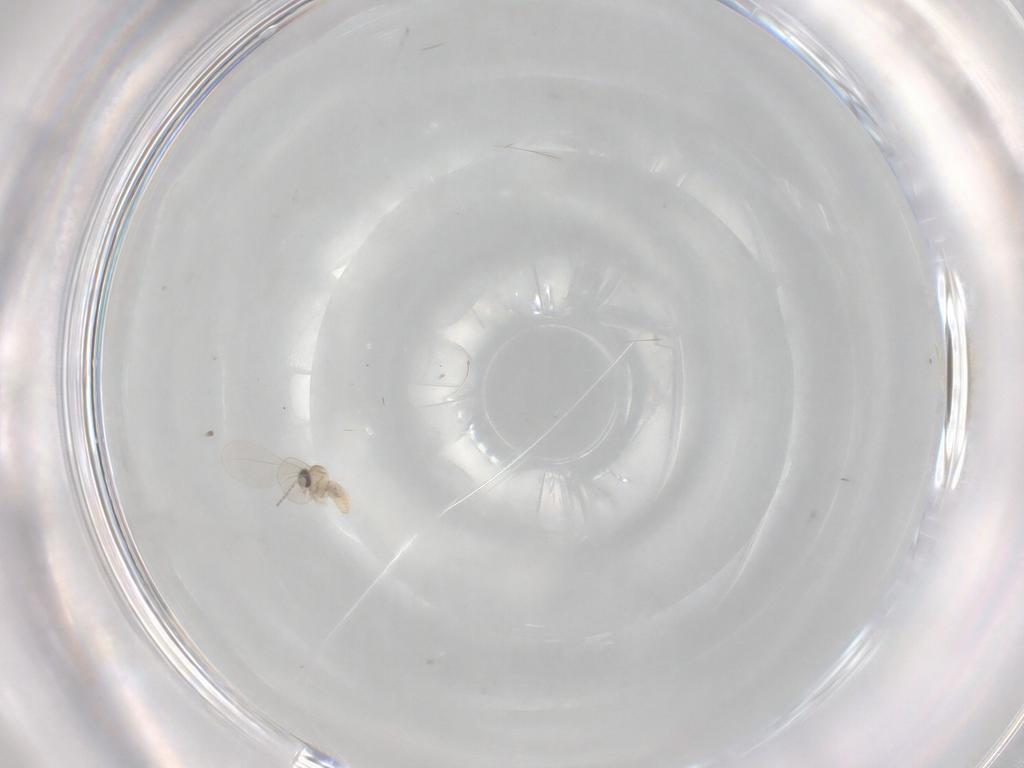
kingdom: Animalia
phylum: Arthropoda
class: Insecta
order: Diptera
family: Cecidomyiidae
